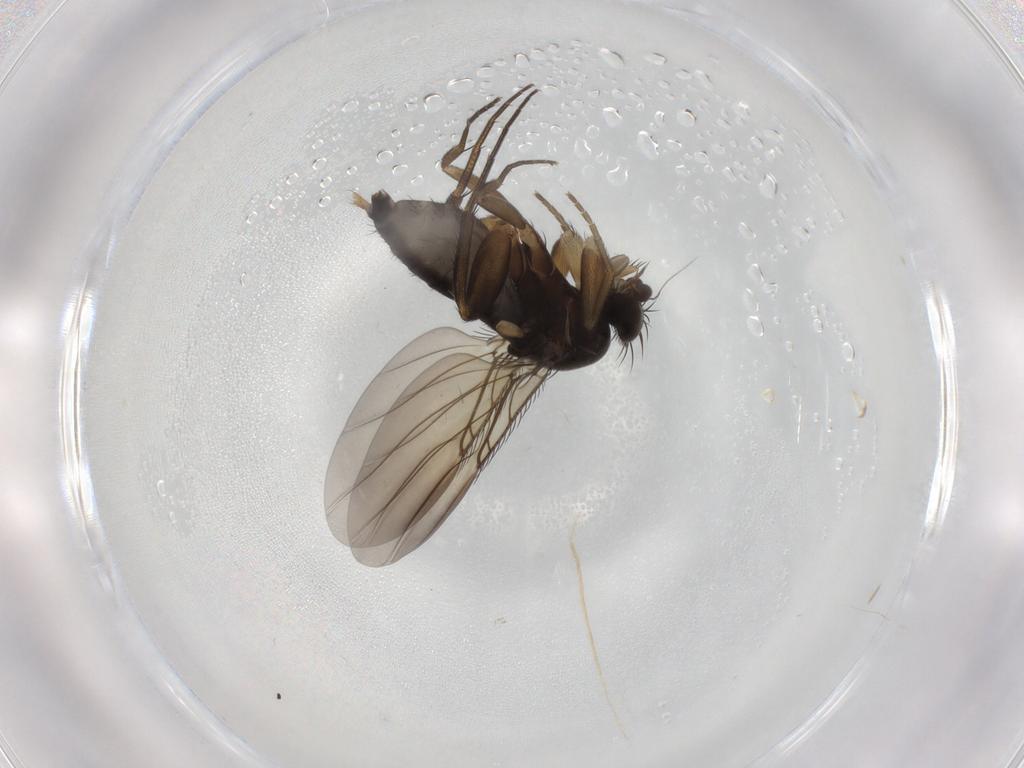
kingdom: Animalia
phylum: Arthropoda
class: Insecta
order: Diptera
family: Phoridae
